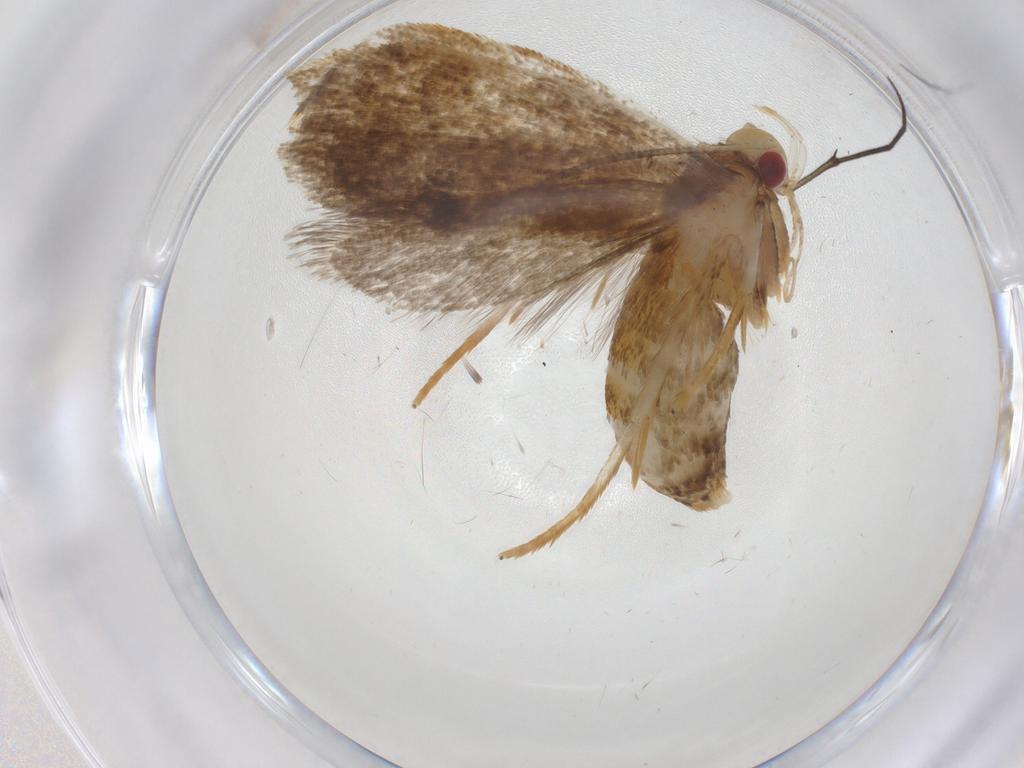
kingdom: Animalia
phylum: Arthropoda
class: Insecta
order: Lepidoptera
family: Oecophoridae
